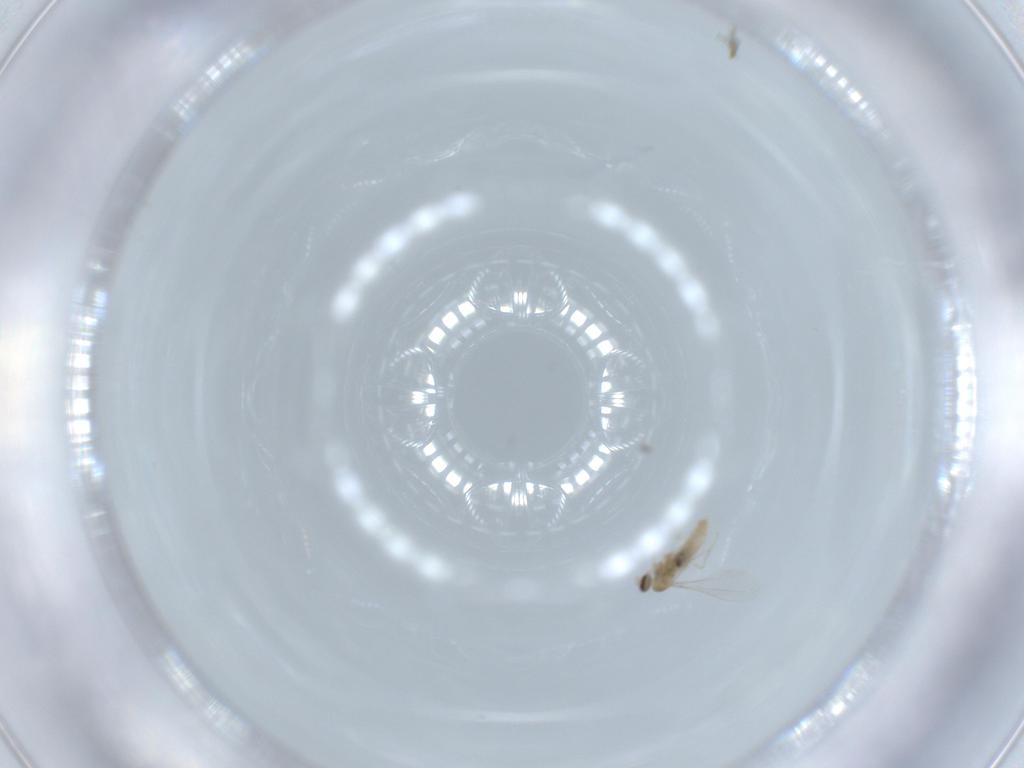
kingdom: Animalia
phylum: Arthropoda
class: Insecta
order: Diptera
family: Cecidomyiidae
